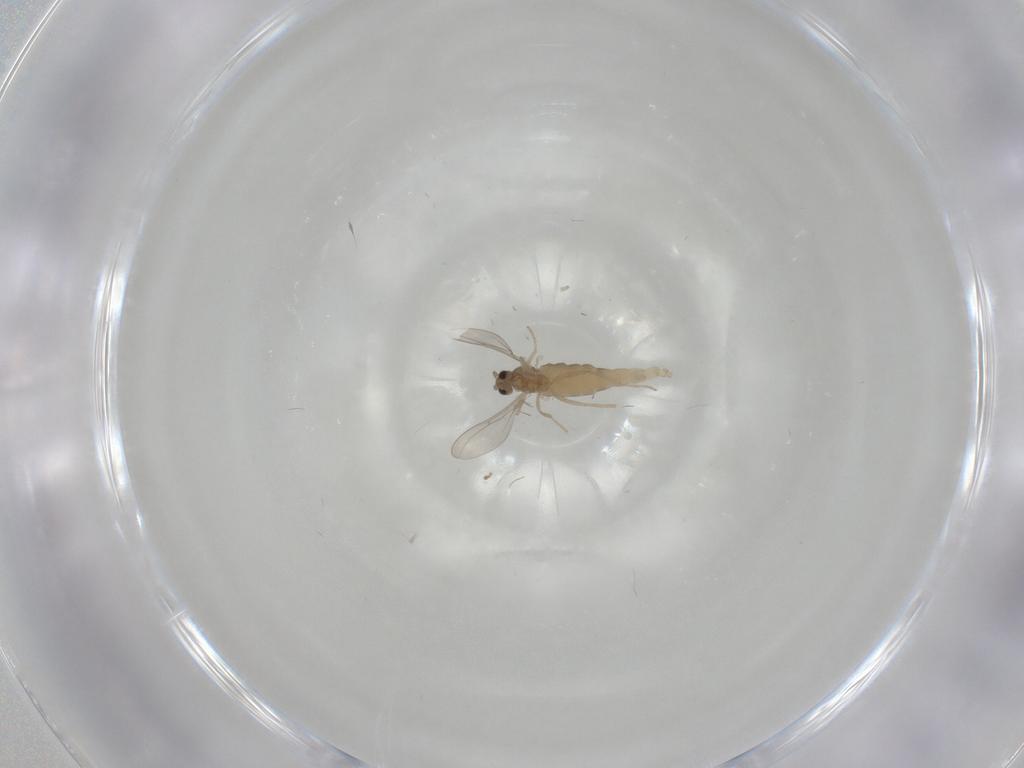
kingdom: Animalia
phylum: Arthropoda
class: Insecta
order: Diptera
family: Cecidomyiidae
